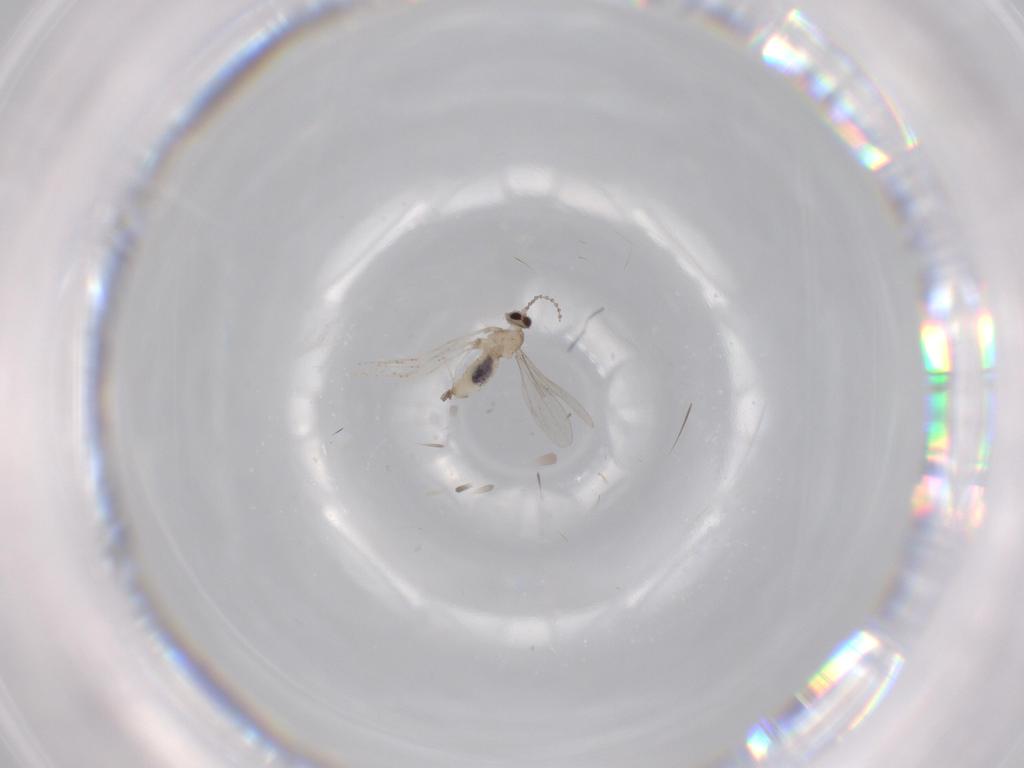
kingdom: Animalia
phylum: Arthropoda
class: Insecta
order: Diptera
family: Cecidomyiidae
